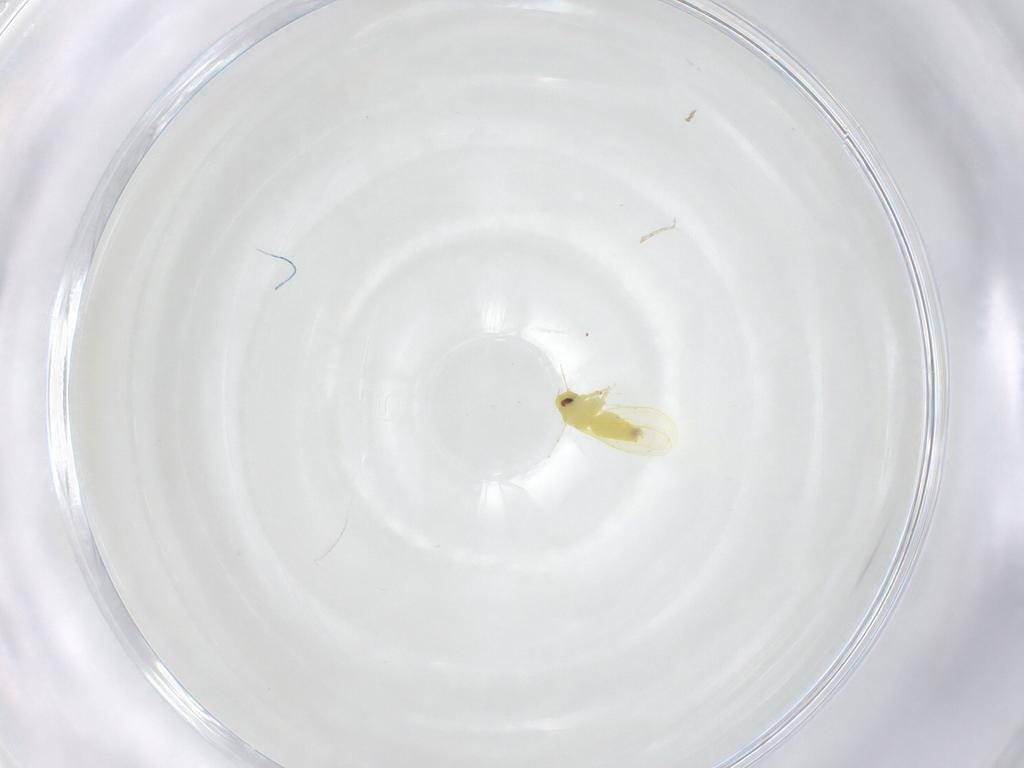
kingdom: Animalia
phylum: Arthropoda
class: Insecta
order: Hemiptera
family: Aleyrodidae
